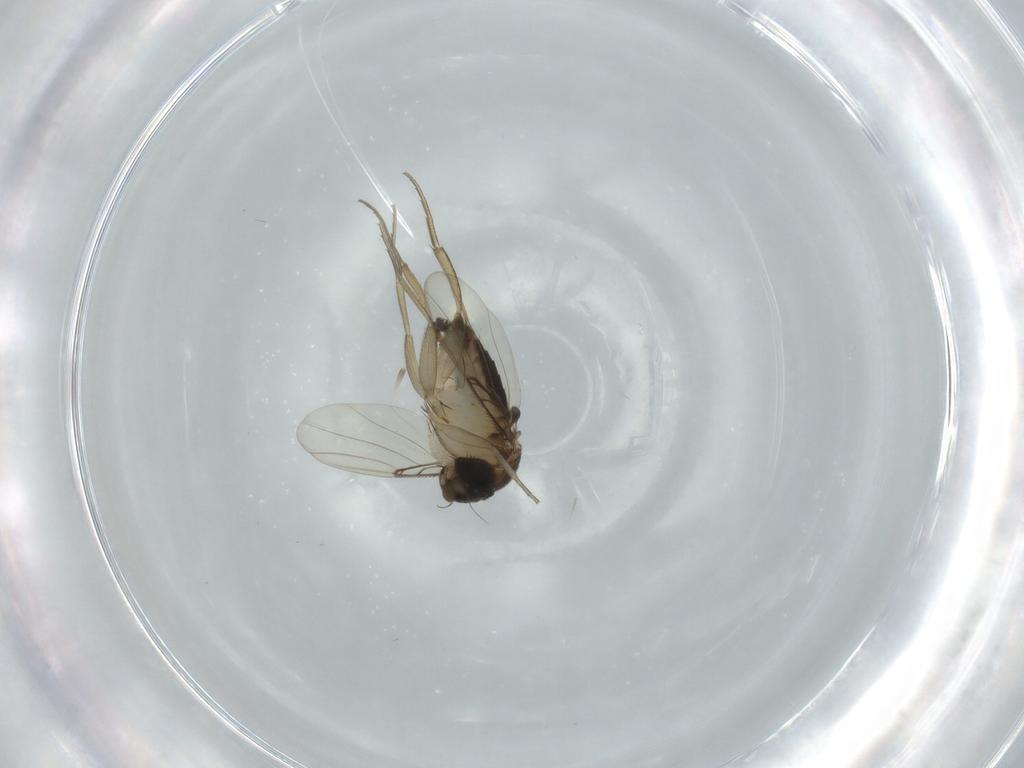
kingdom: Animalia
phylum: Arthropoda
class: Insecta
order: Diptera
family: Phoridae
